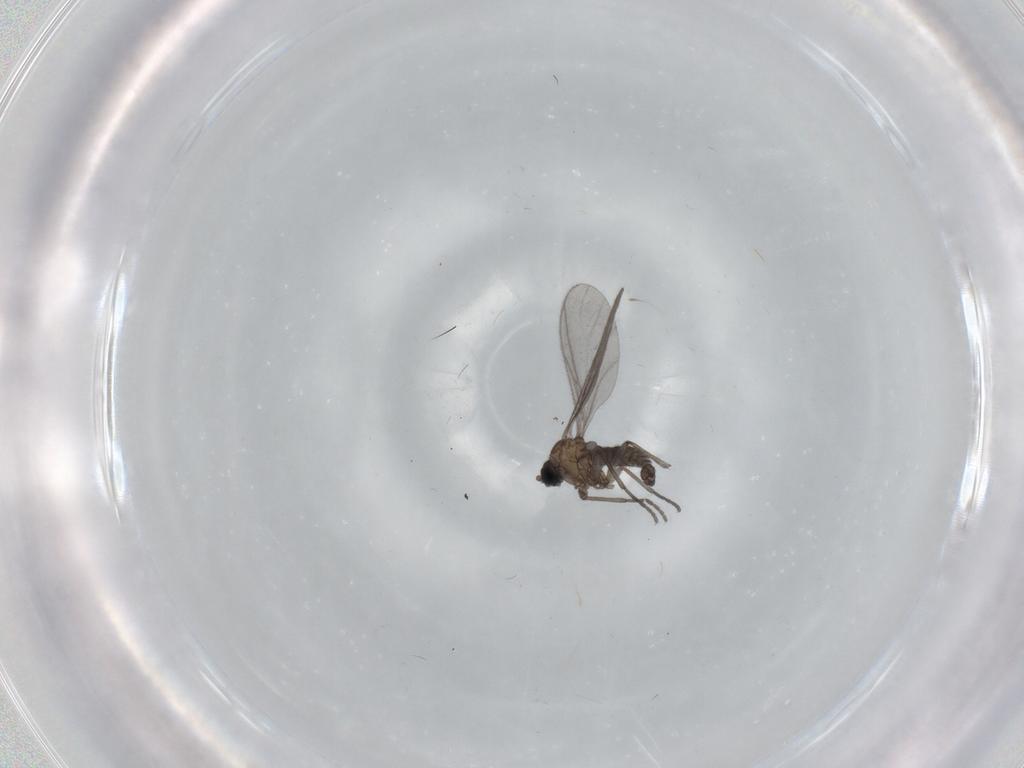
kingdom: Animalia
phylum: Arthropoda
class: Insecta
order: Diptera
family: Sciaridae
